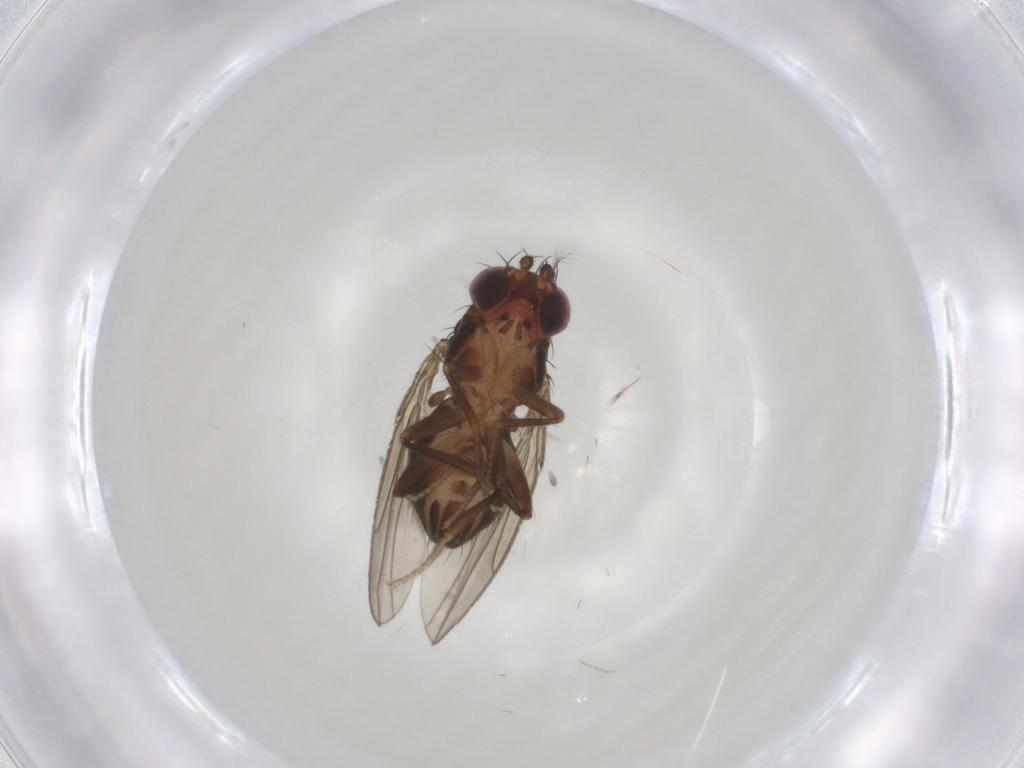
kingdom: Animalia
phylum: Arthropoda
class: Insecta
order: Diptera
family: Drosophilidae
